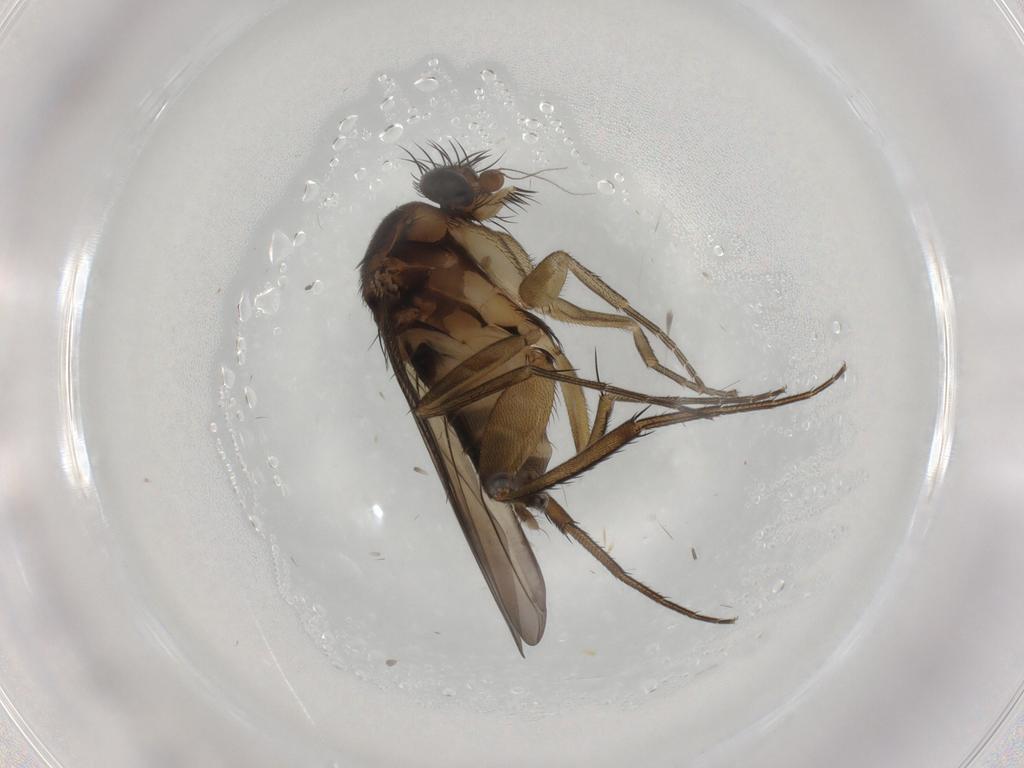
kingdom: Animalia
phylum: Arthropoda
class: Insecta
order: Diptera
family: Phoridae
